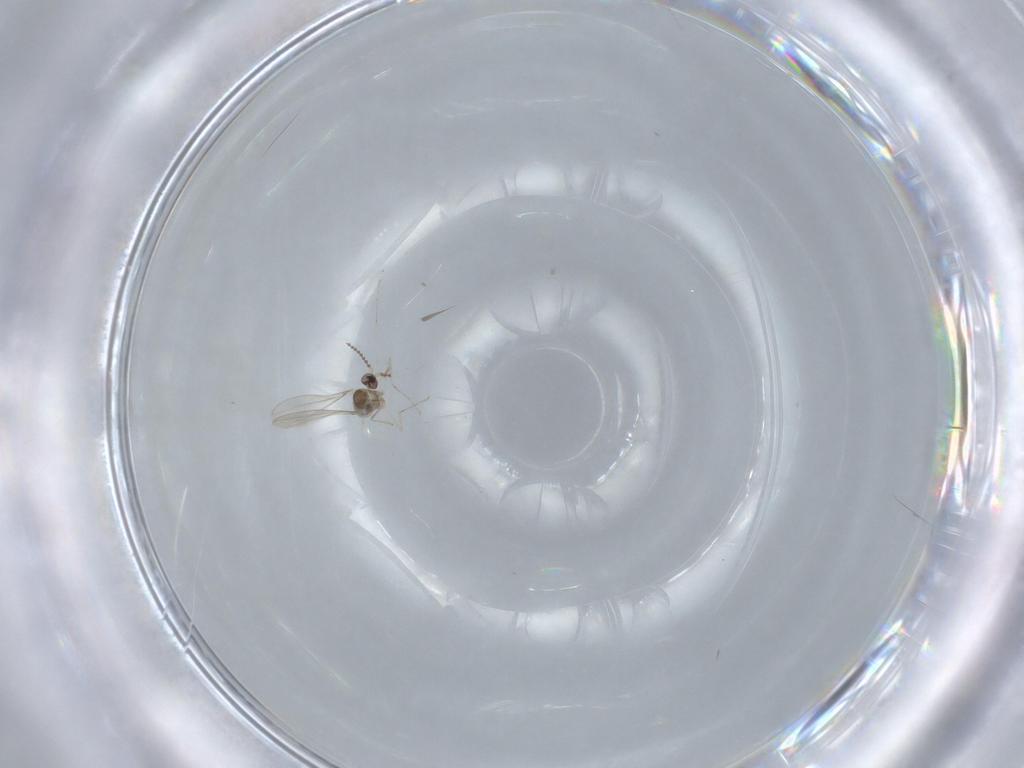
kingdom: Animalia
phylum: Arthropoda
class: Insecta
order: Diptera
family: Cecidomyiidae
